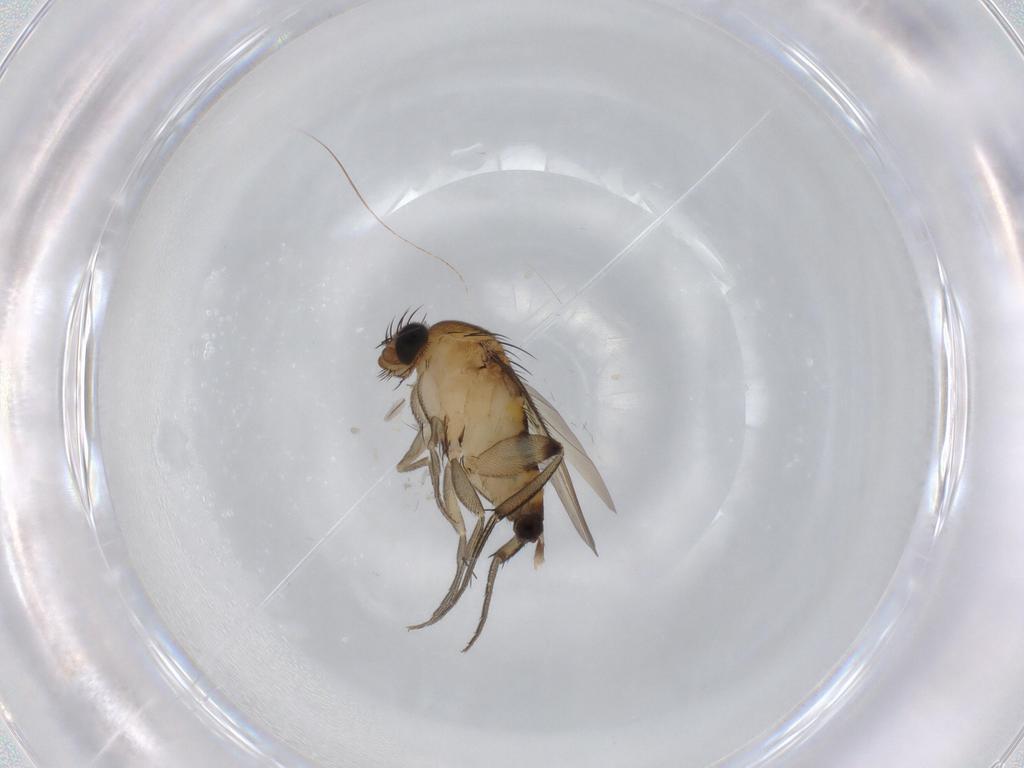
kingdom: Animalia
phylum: Arthropoda
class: Insecta
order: Diptera
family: Phoridae
